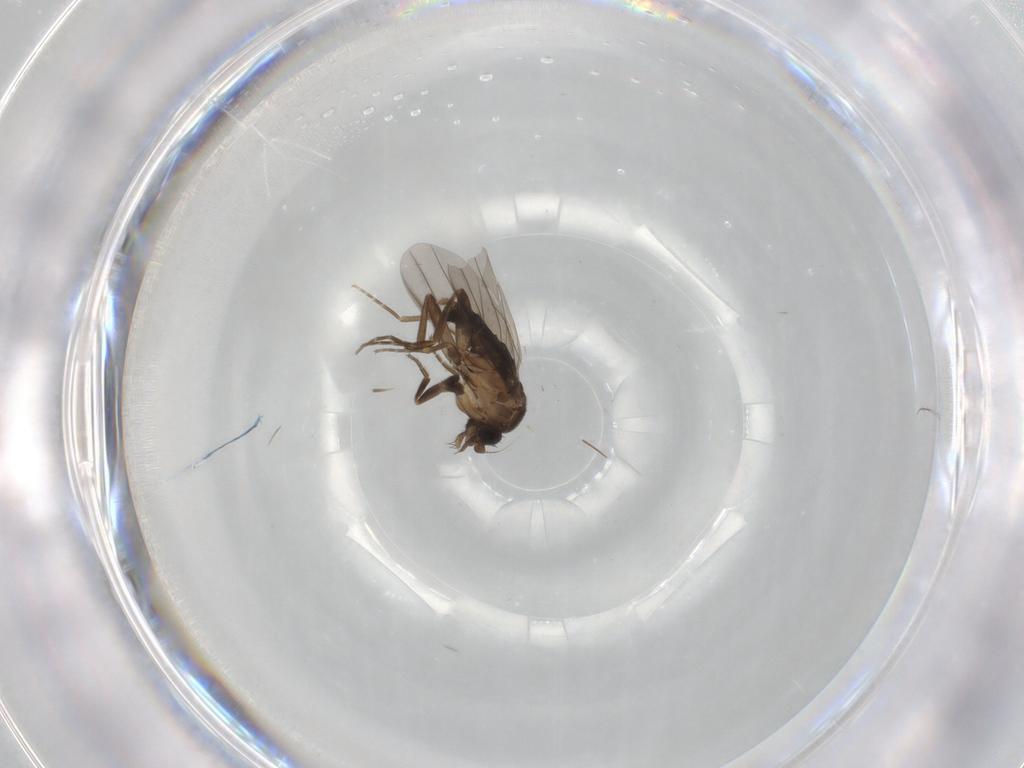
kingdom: Animalia
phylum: Arthropoda
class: Insecta
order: Diptera
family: Chironomidae
